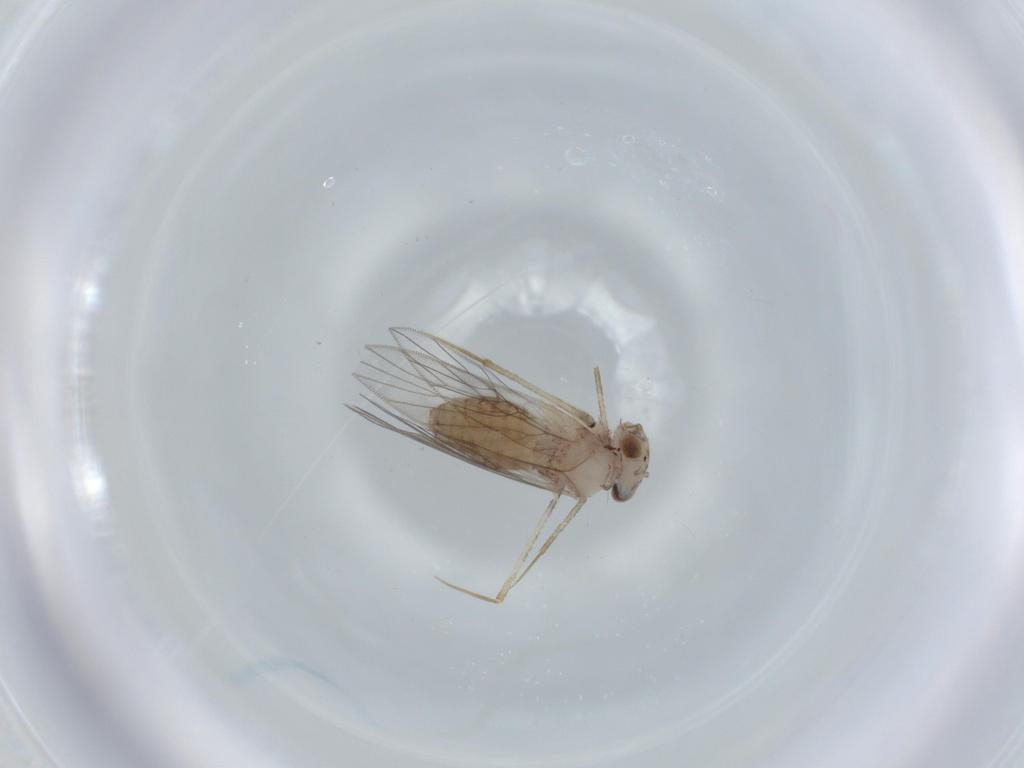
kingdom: Animalia
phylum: Arthropoda
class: Insecta
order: Psocodea
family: Lepidopsocidae
